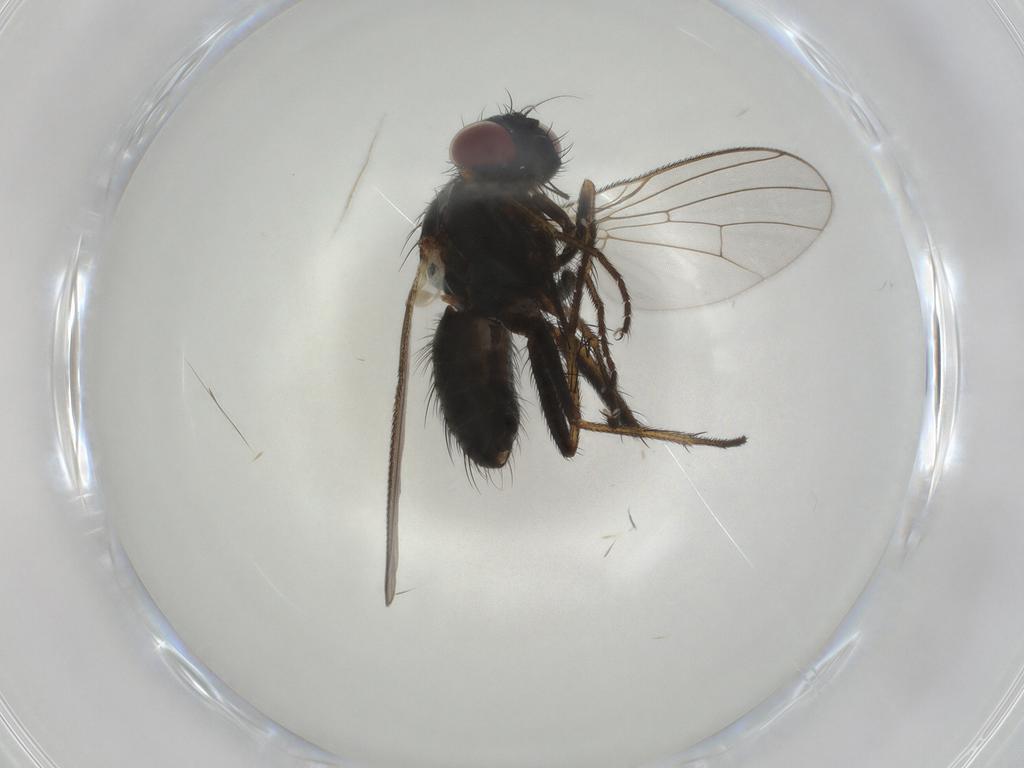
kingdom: Animalia
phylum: Arthropoda
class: Insecta
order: Diptera
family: Muscidae
